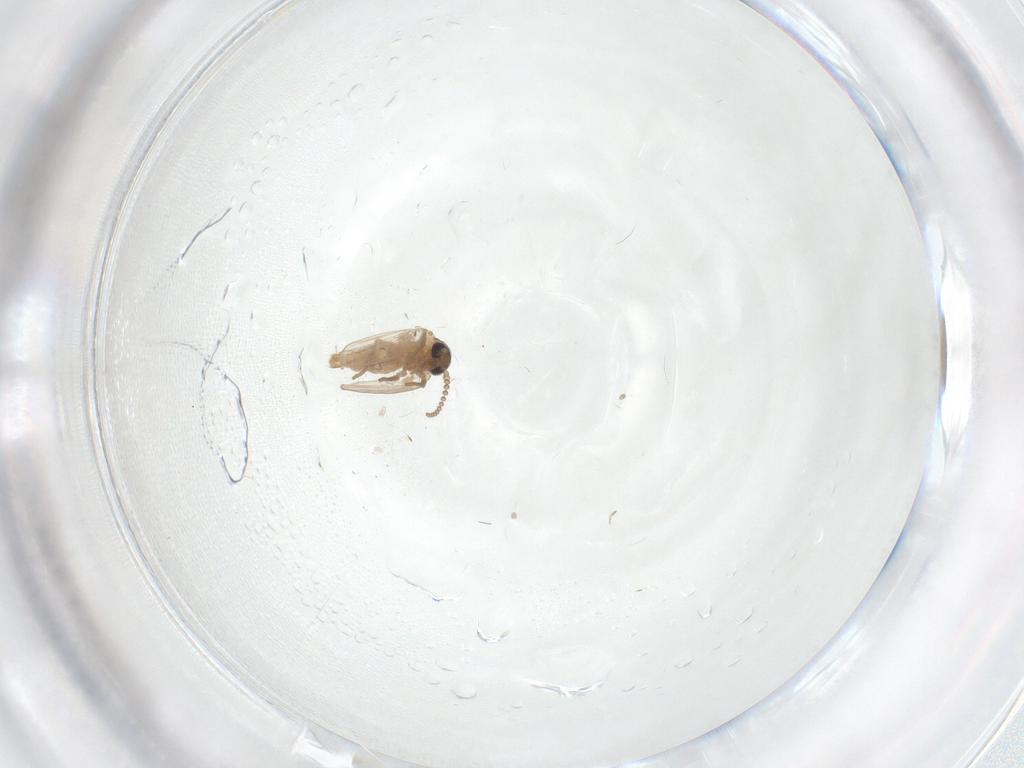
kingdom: Animalia
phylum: Arthropoda
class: Insecta
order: Diptera
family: Psychodidae
